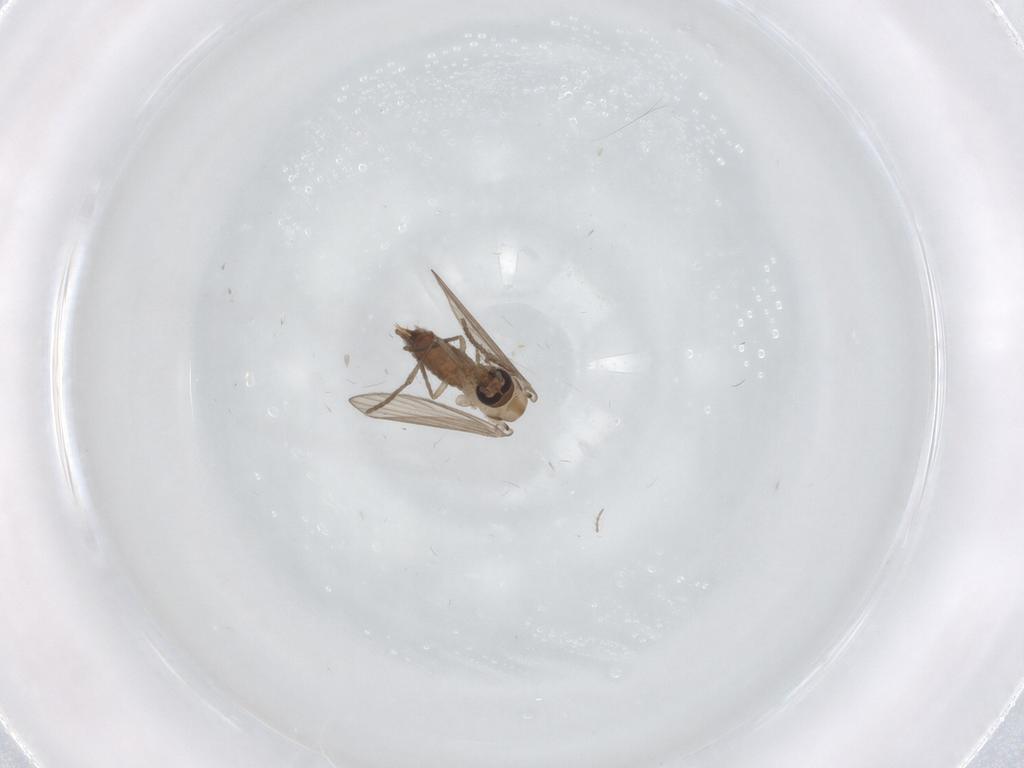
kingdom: Animalia
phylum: Arthropoda
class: Insecta
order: Diptera
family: Psychodidae
